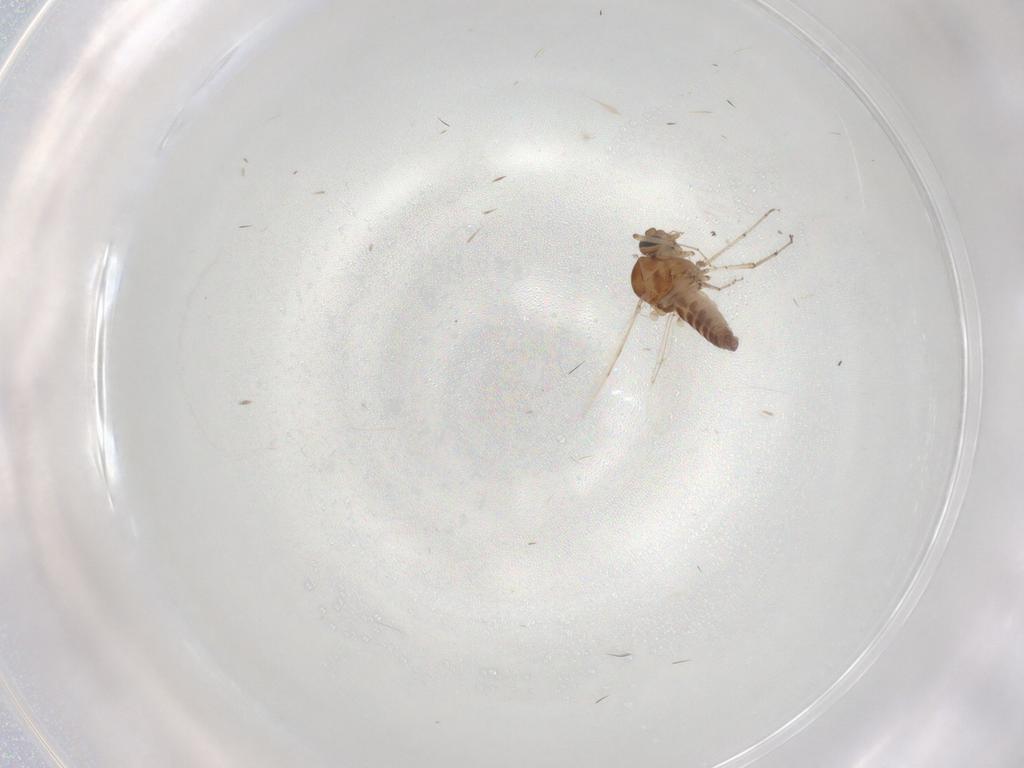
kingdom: Animalia
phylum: Arthropoda
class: Insecta
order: Diptera
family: Ceratopogonidae
